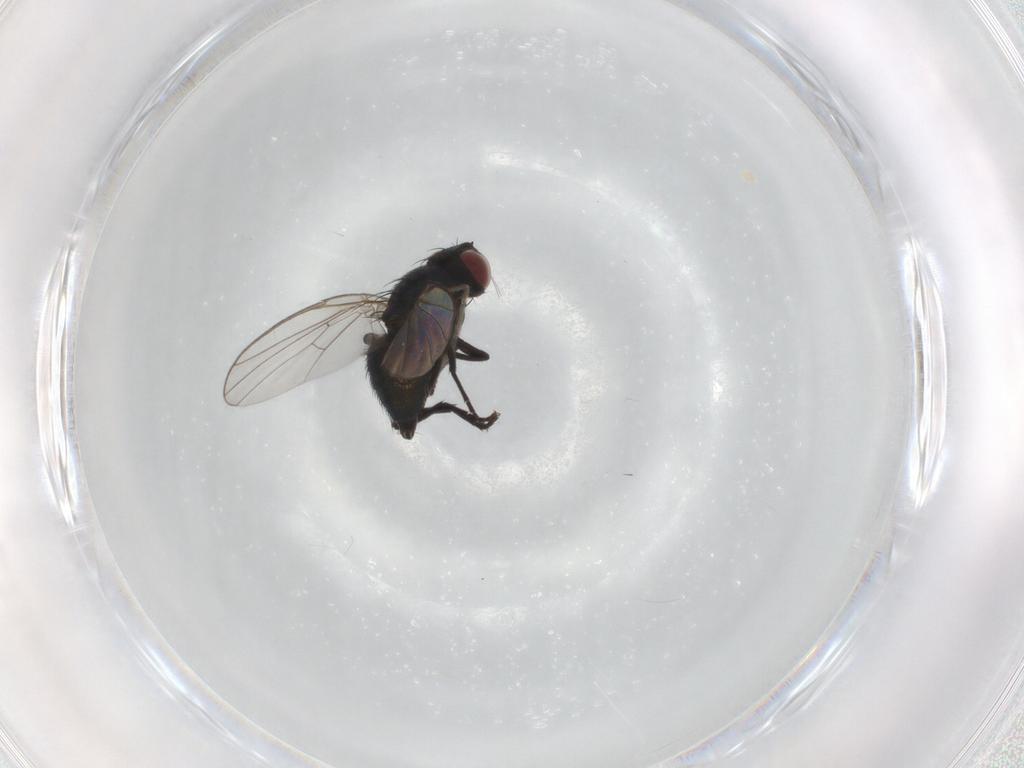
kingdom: Animalia
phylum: Arthropoda
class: Insecta
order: Diptera
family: Agromyzidae
